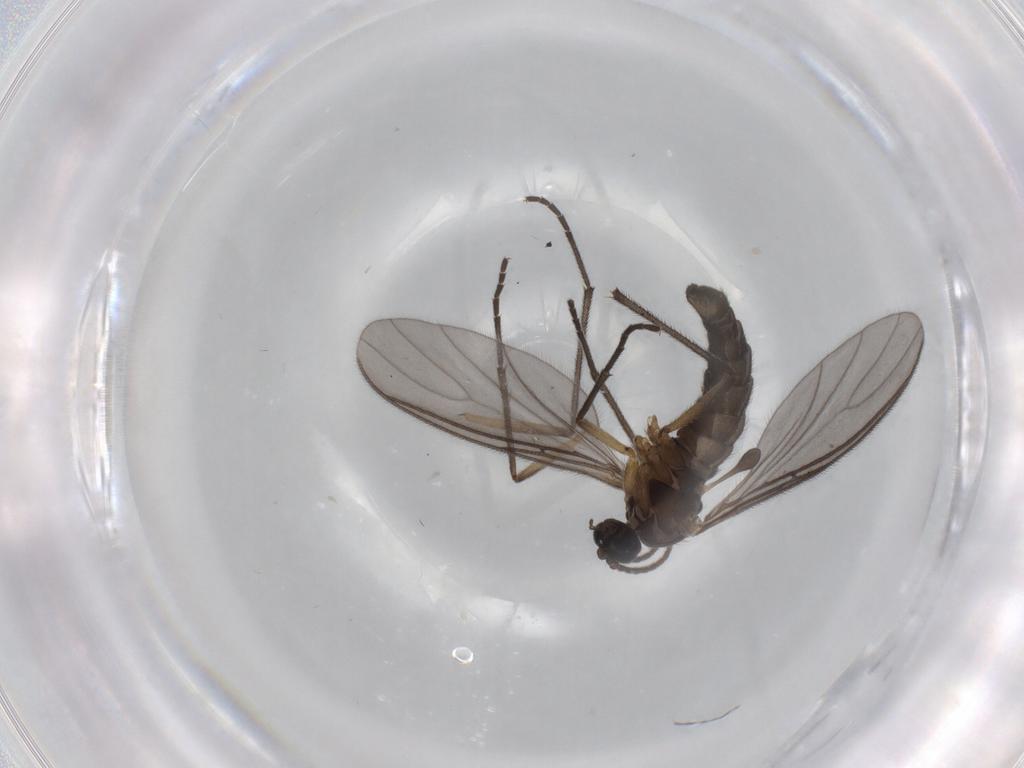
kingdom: Animalia
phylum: Arthropoda
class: Insecta
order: Diptera
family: Sciaridae
